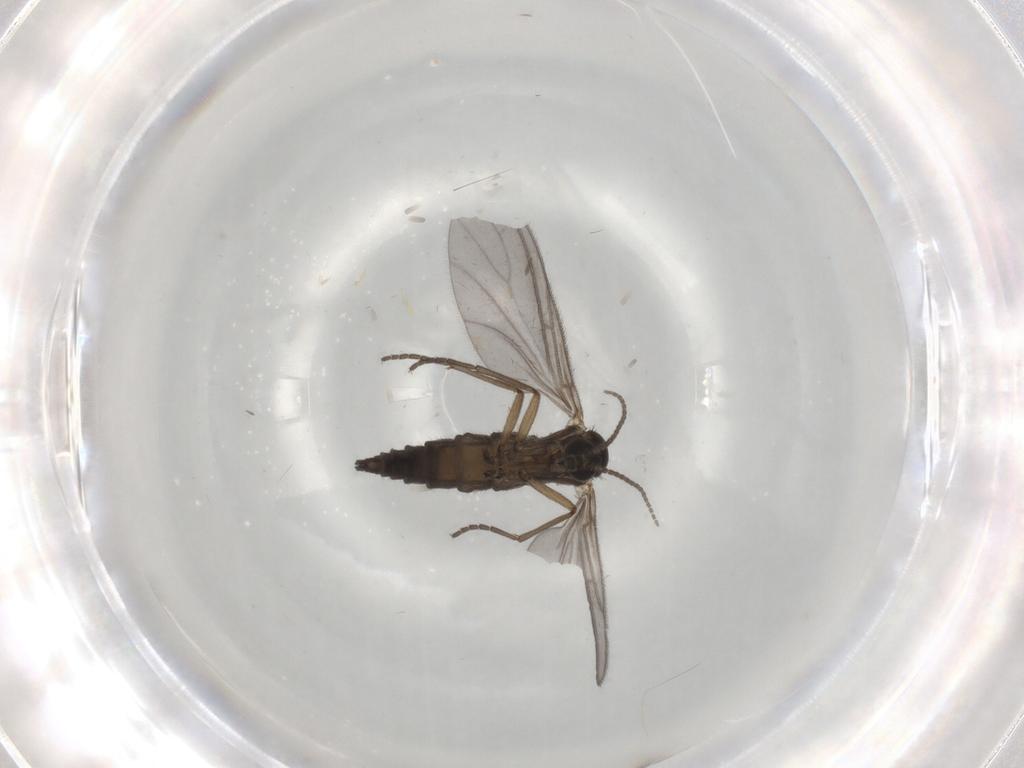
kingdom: Animalia
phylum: Arthropoda
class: Insecta
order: Diptera
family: Sciaridae
